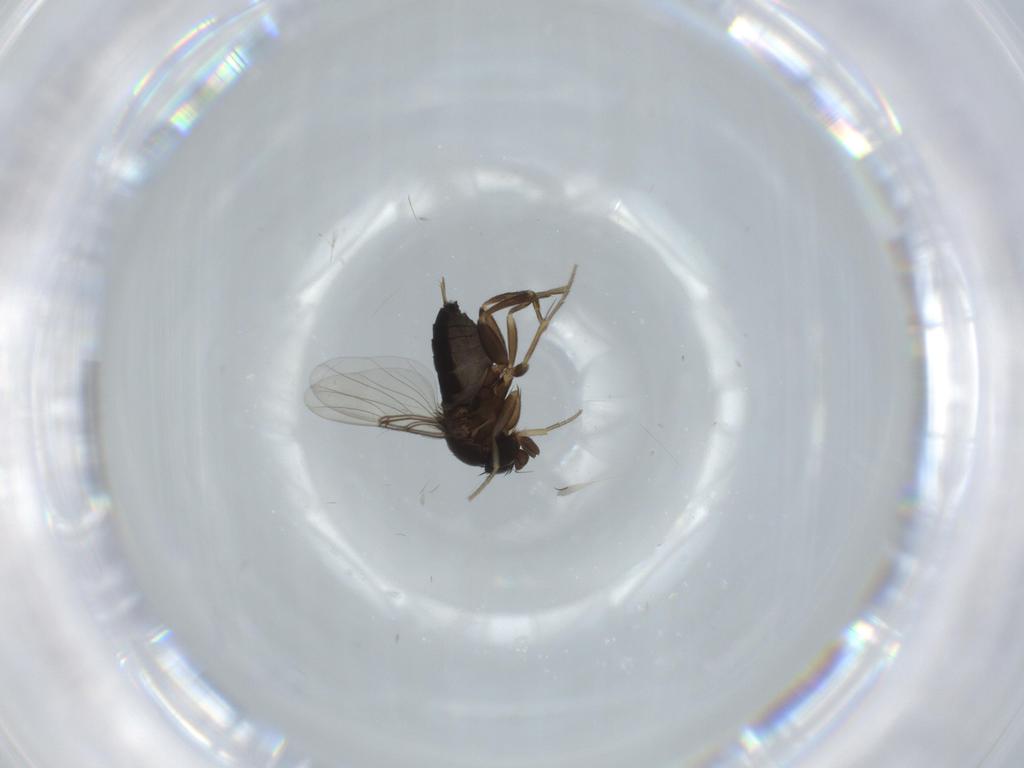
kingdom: Animalia
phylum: Arthropoda
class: Insecta
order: Diptera
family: Phoridae
